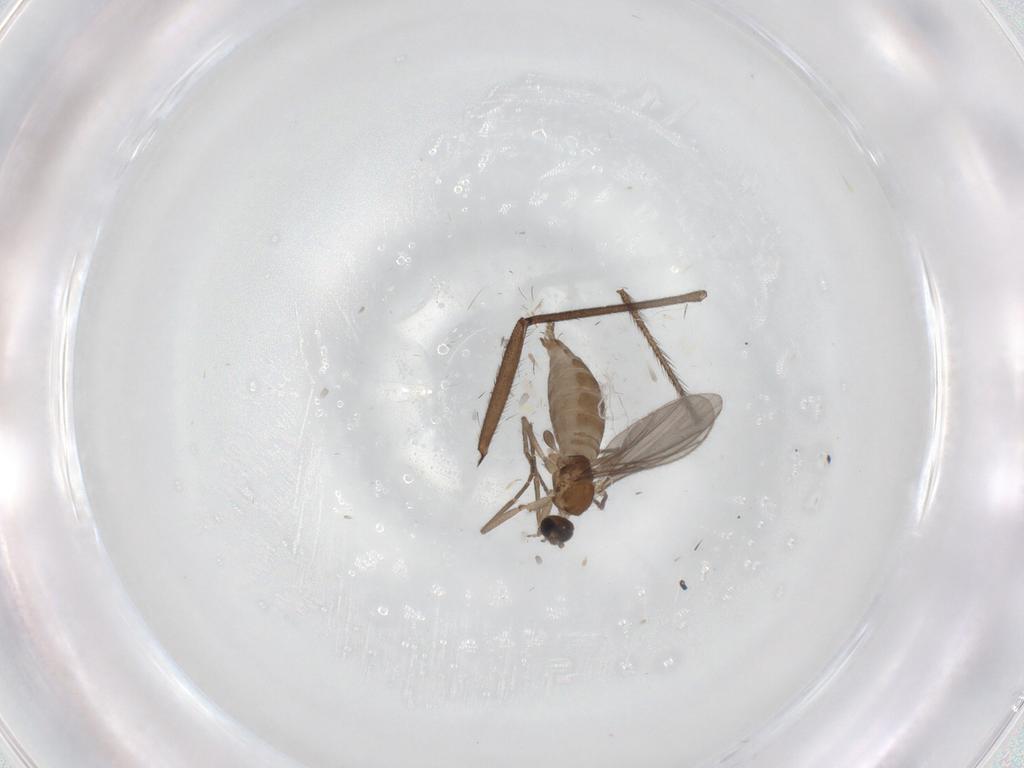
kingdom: Animalia
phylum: Arthropoda
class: Insecta
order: Diptera
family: Sciaridae
